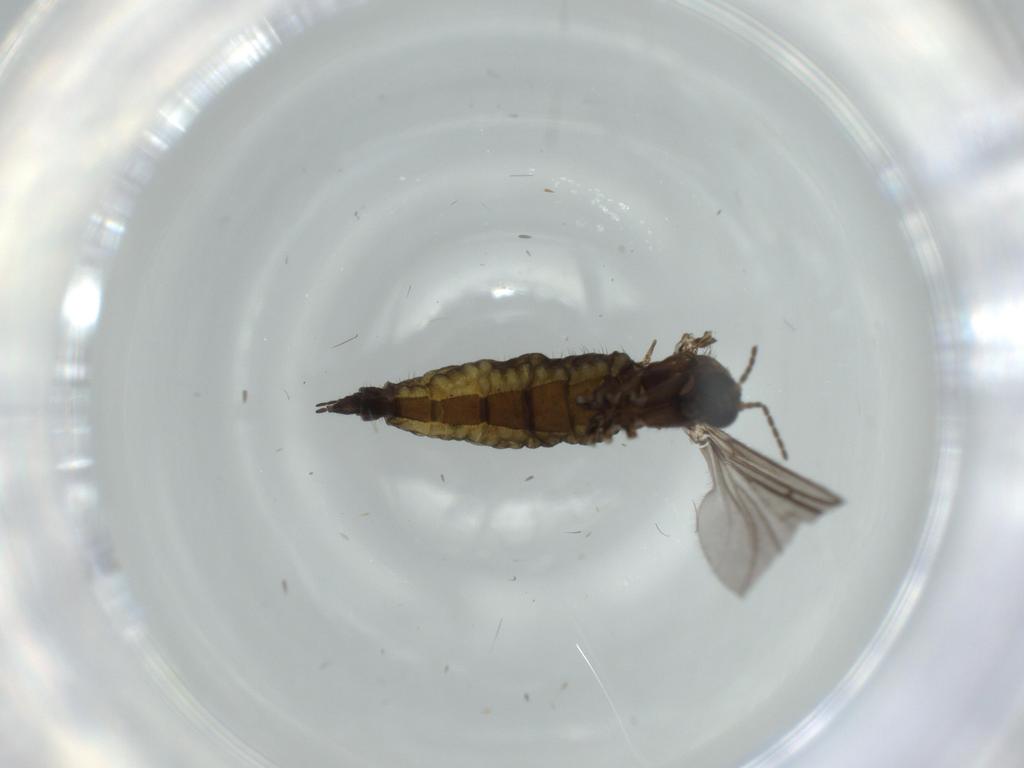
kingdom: Animalia
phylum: Arthropoda
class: Insecta
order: Diptera
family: Sciaridae
